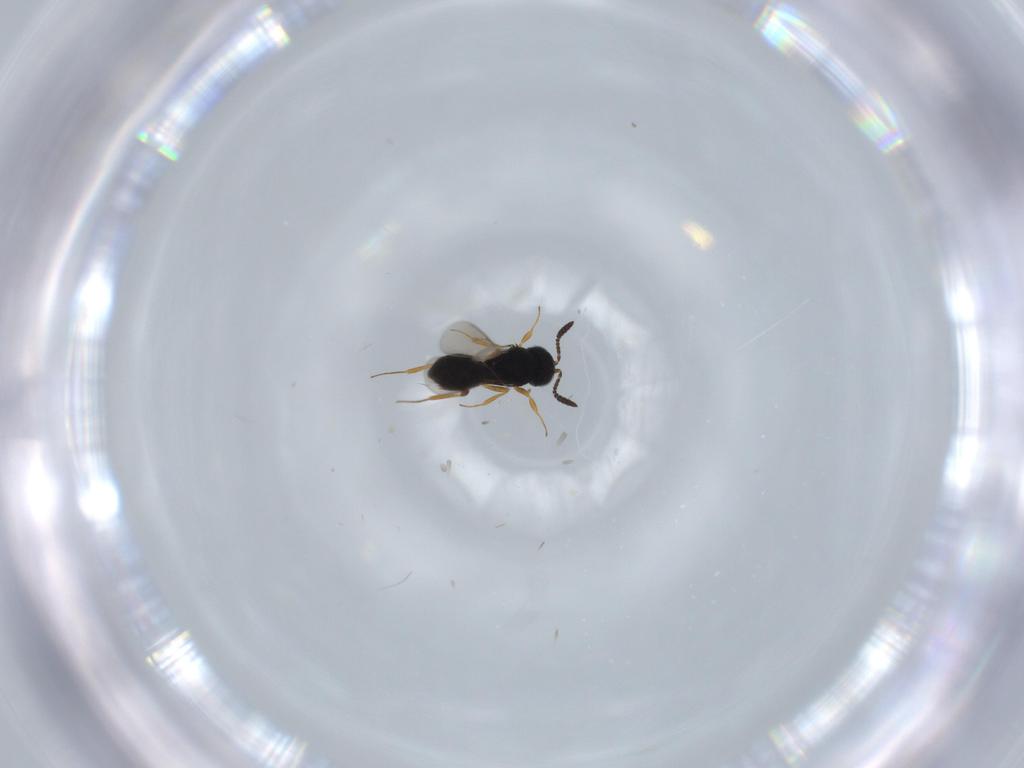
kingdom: Animalia
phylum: Arthropoda
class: Insecta
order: Hymenoptera
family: Scelionidae
